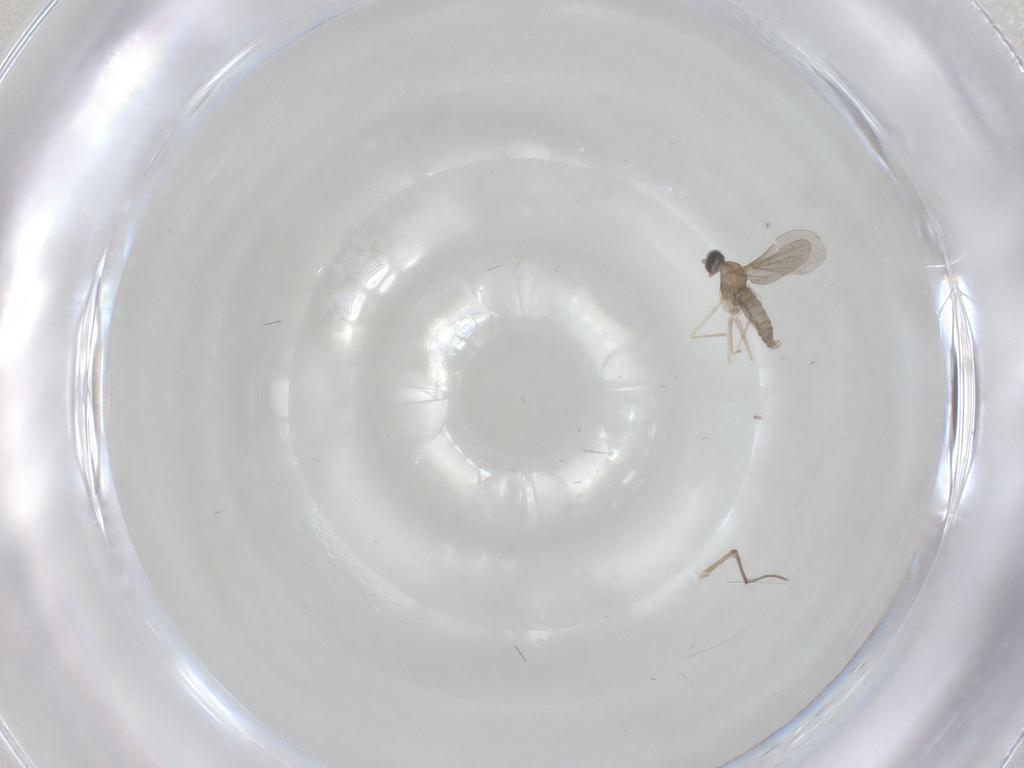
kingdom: Animalia
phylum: Arthropoda
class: Insecta
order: Diptera
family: Chironomidae
